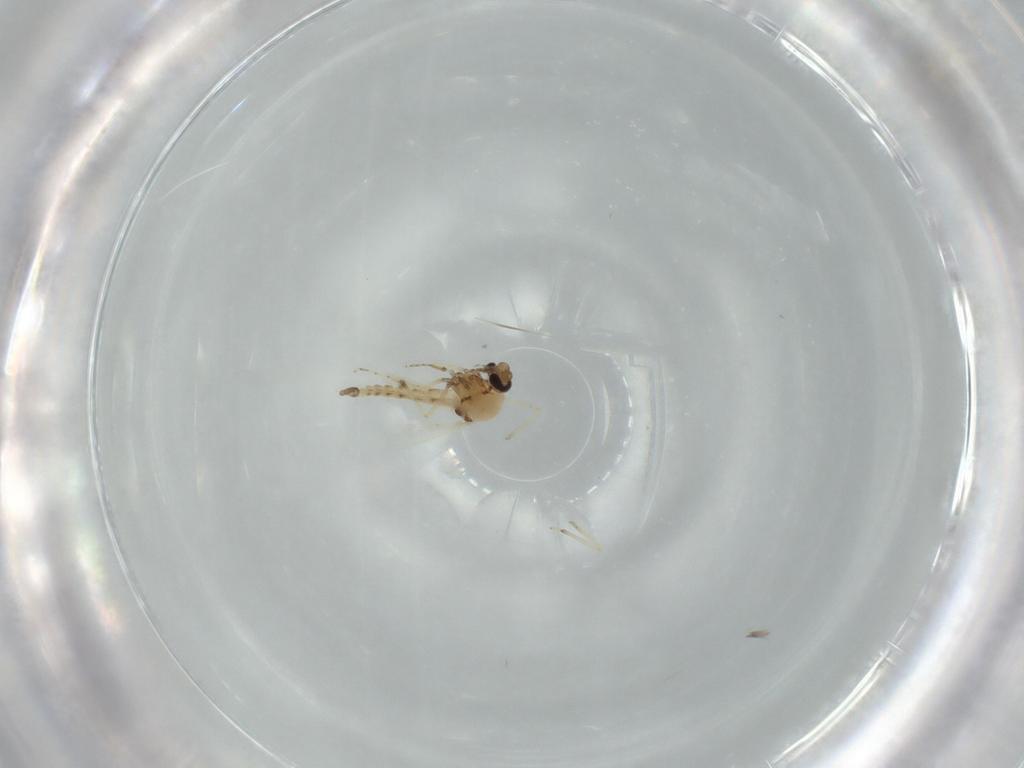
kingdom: Animalia
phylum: Arthropoda
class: Insecta
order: Diptera
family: Ceratopogonidae
